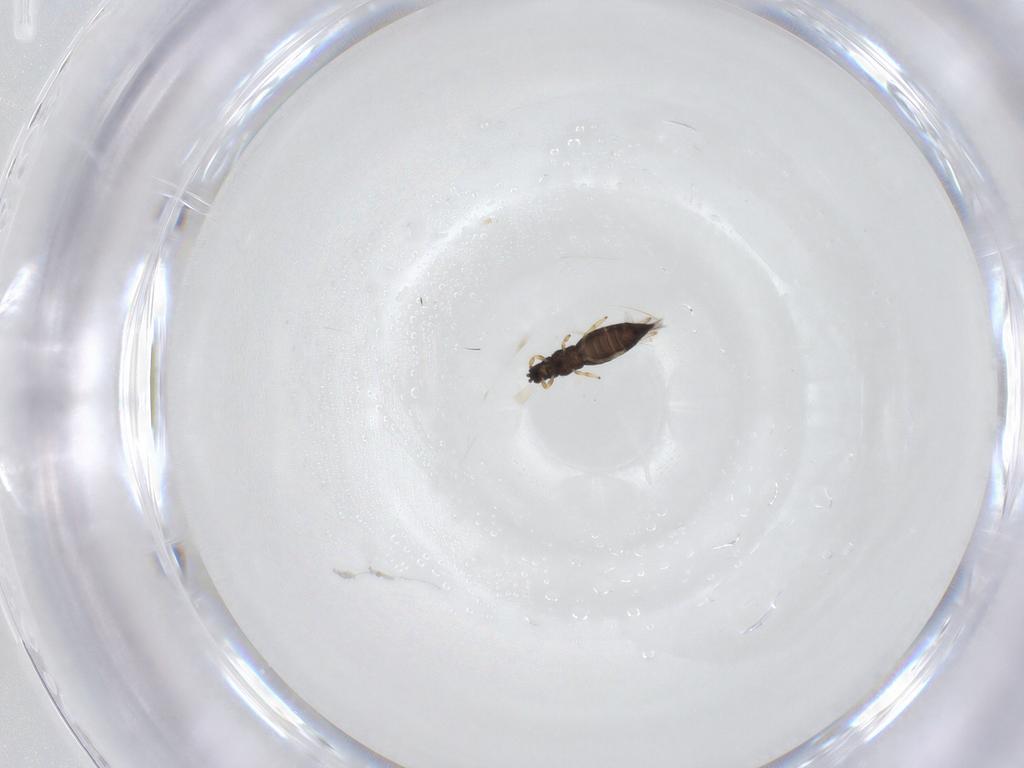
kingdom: Animalia
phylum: Arthropoda
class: Insecta
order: Thysanoptera
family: Thripidae
